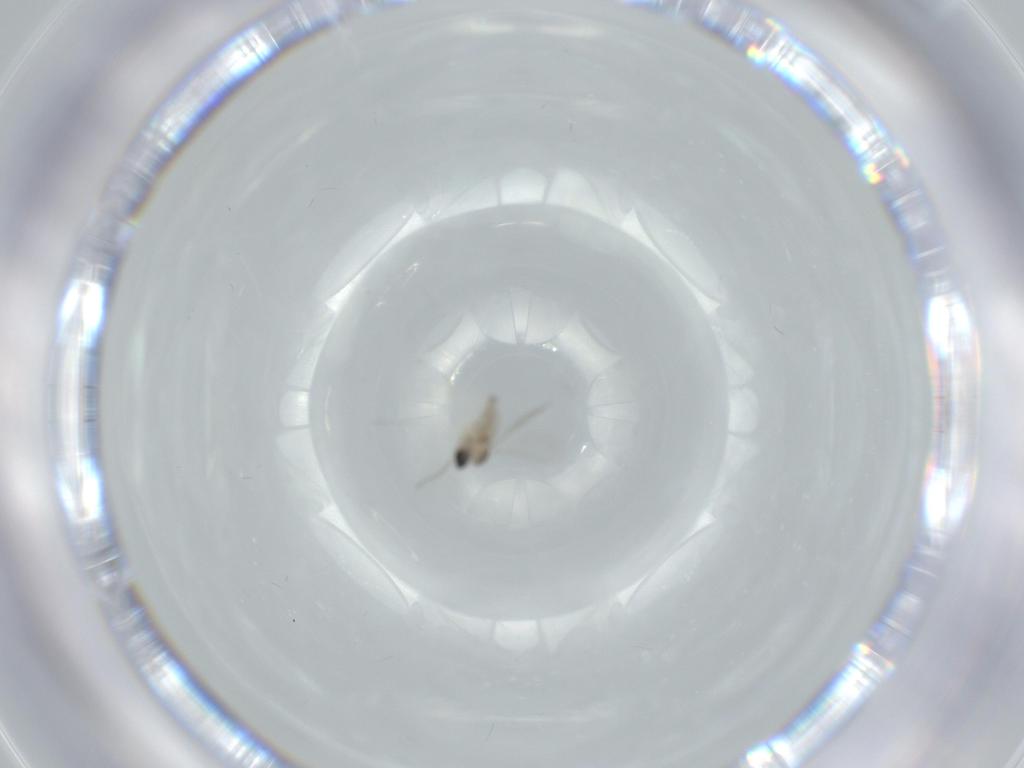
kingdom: Animalia
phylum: Arthropoda
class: Insecta
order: Diptera
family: Cecidomyiidae
